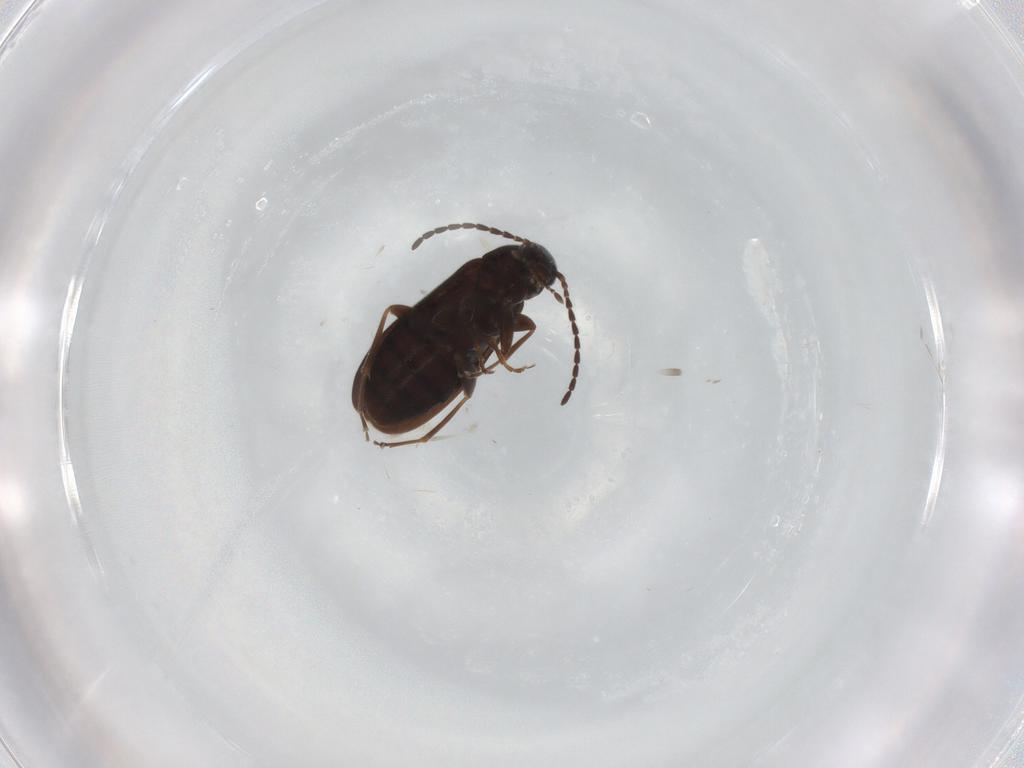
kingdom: Animalia
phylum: Arthropoda
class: Insecta
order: Coleoptera
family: Scraptiidae
